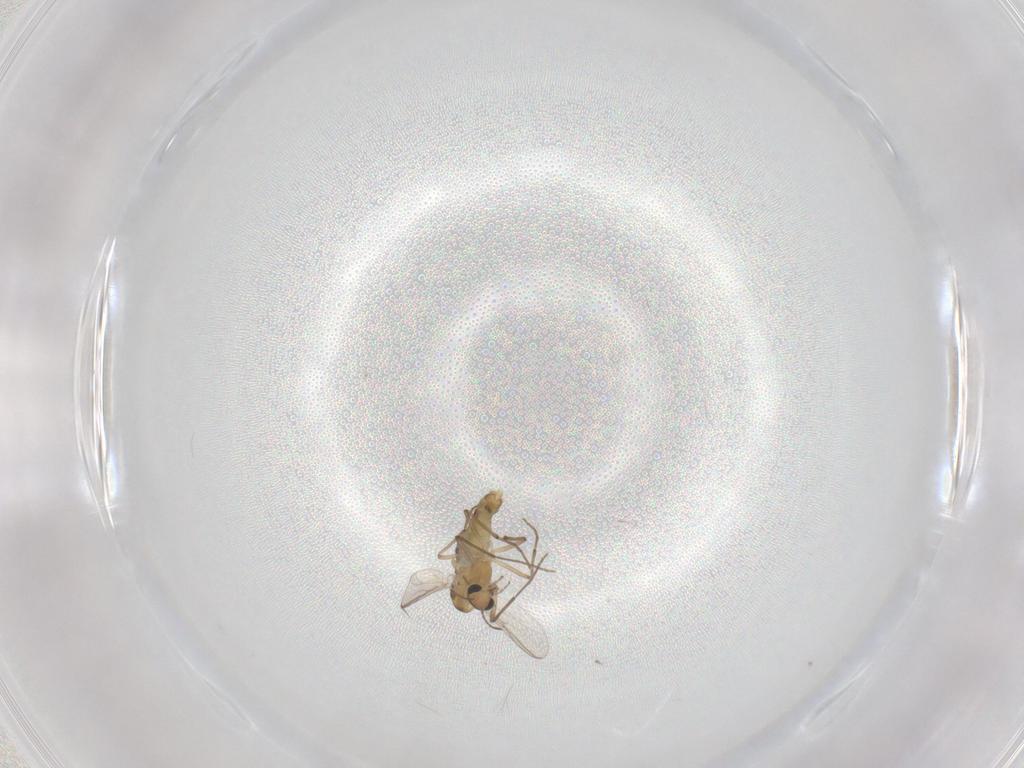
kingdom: Animalia
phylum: Arthropoda
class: Insecta
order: Diptera
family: Chironomidae
